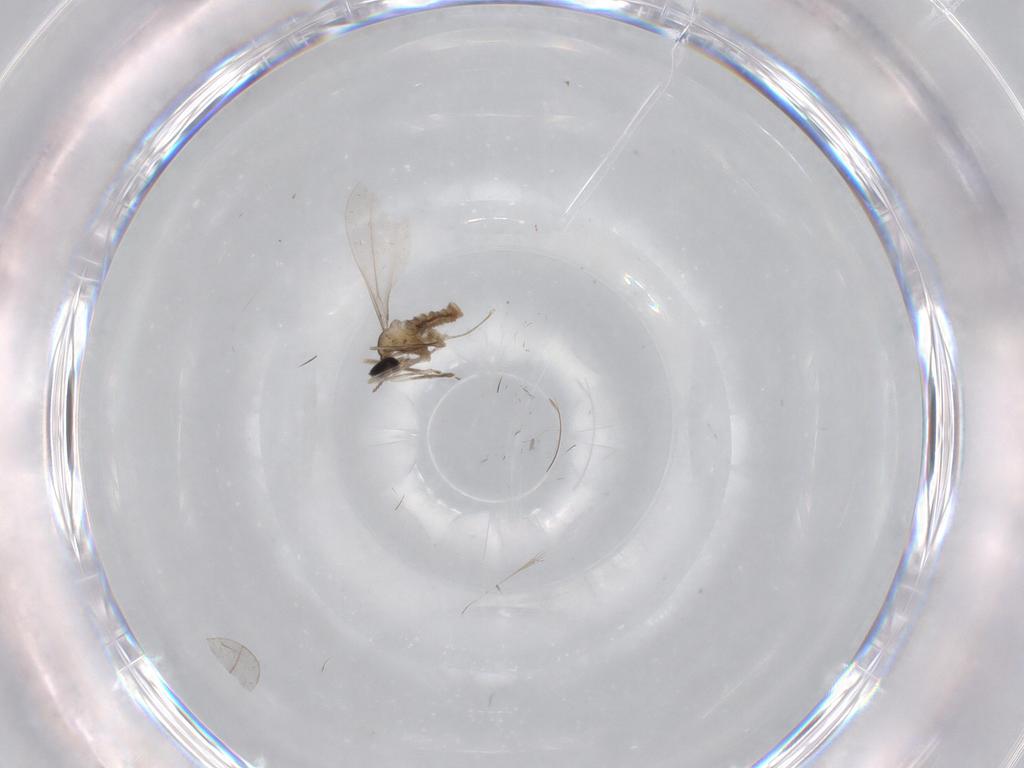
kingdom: Animalia
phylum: Arthropoda
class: Insecta
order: Diptera
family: Cecidomyiidae
